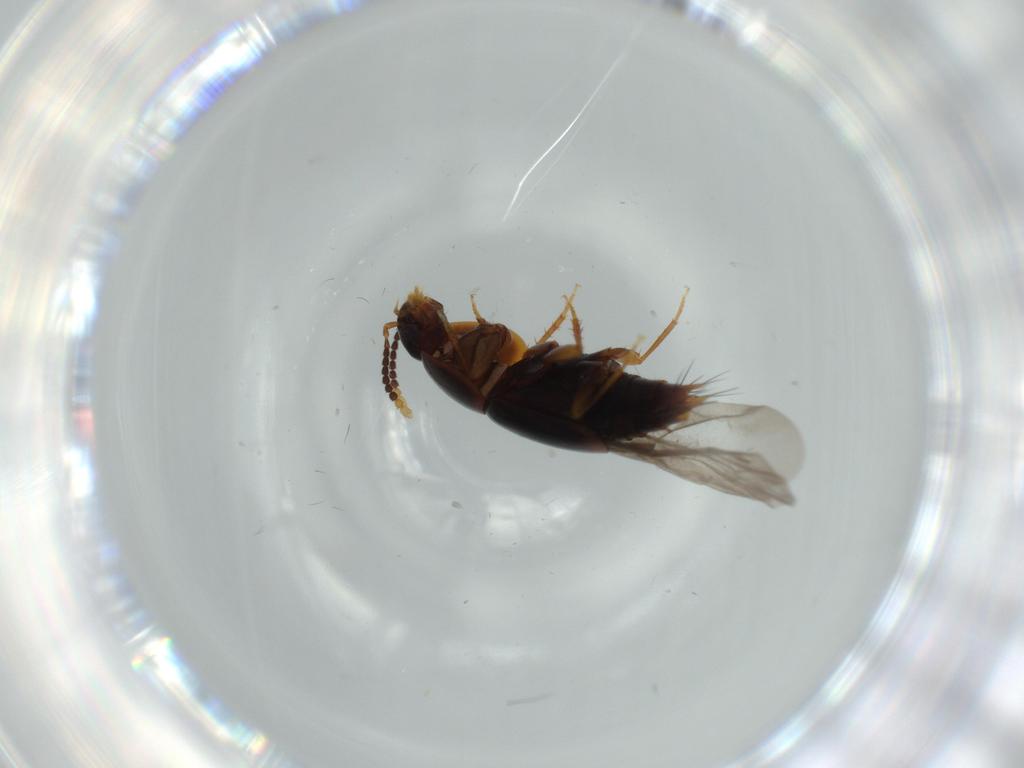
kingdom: Animalia
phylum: Arthropoda
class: Insecta
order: Coleoptera
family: Staphylinidae
